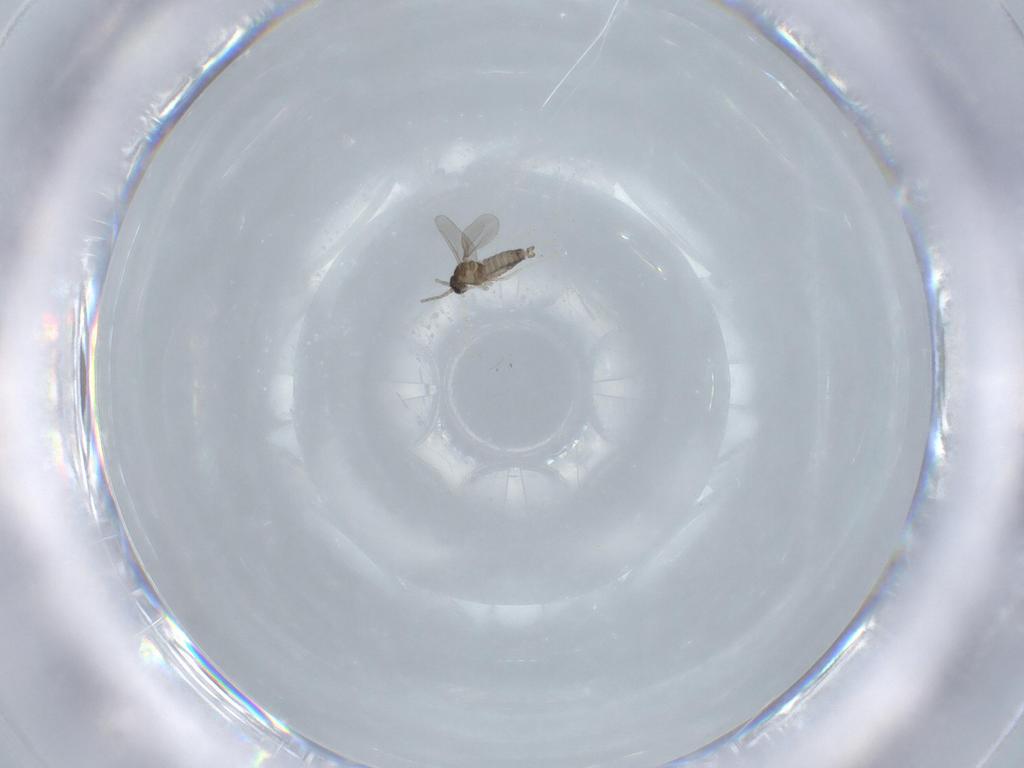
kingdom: Animalia
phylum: Arthropoda
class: Insecta
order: Diptera
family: Cecidomyiidae
